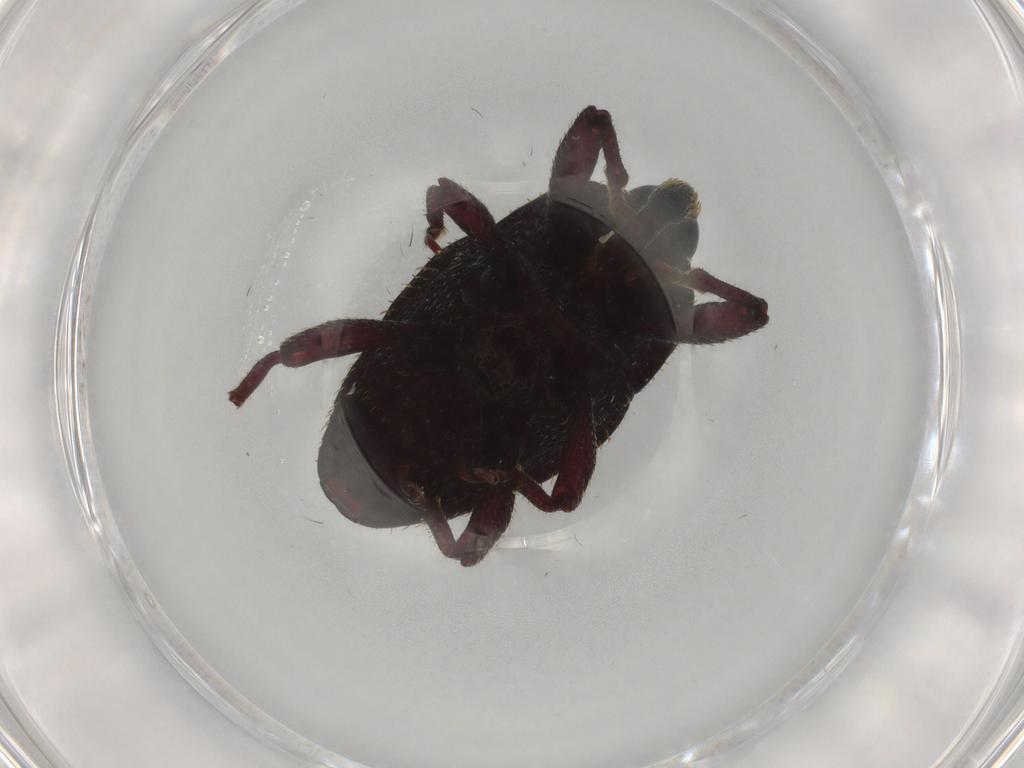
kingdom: Animalia
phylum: Arthropoda
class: Insecta
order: Coleoptera
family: Curculionidae
